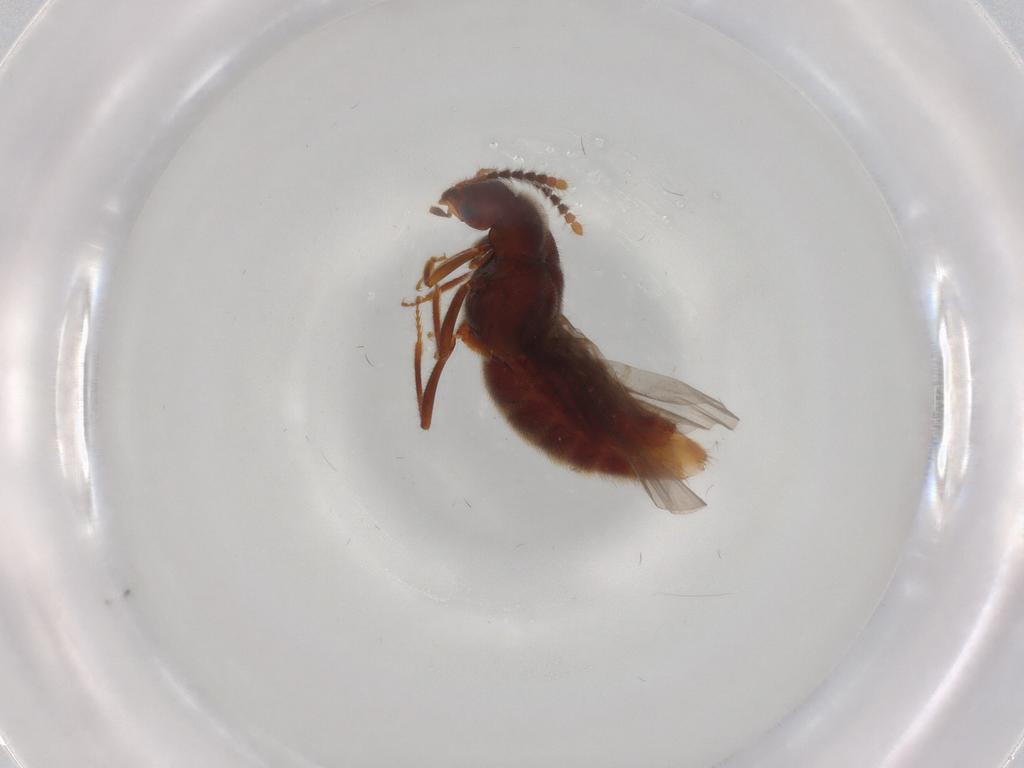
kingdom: Animalia
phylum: Arthropoda
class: Insecta
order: Coleoptera
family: Staphylinidae
